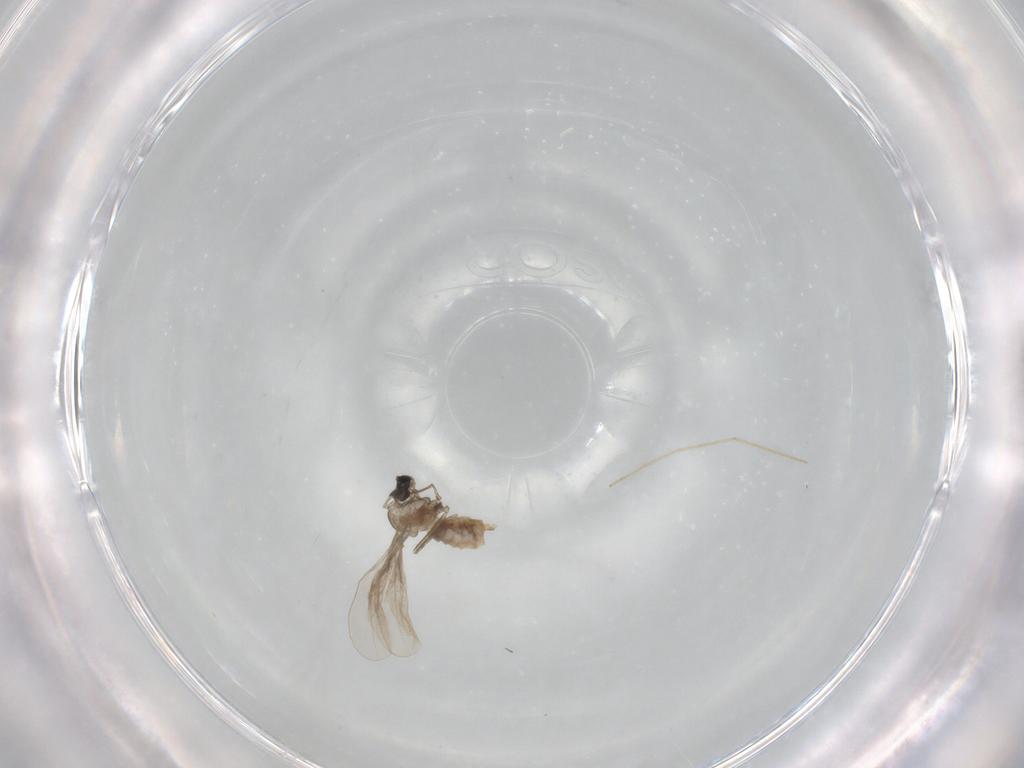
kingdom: Animalia
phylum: Arthropoda
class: Insecta
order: Diptera
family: Chironomidae
